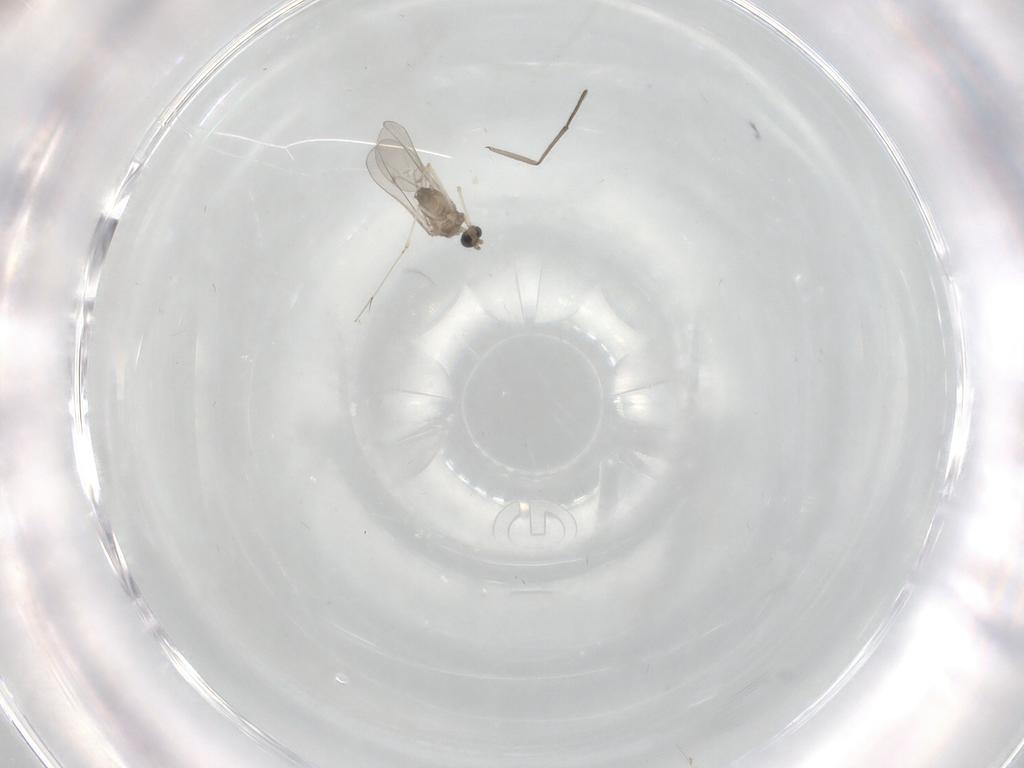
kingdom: Animalia
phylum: Arthropoda
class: Insecta
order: Diptera
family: Cecidomyiidae
